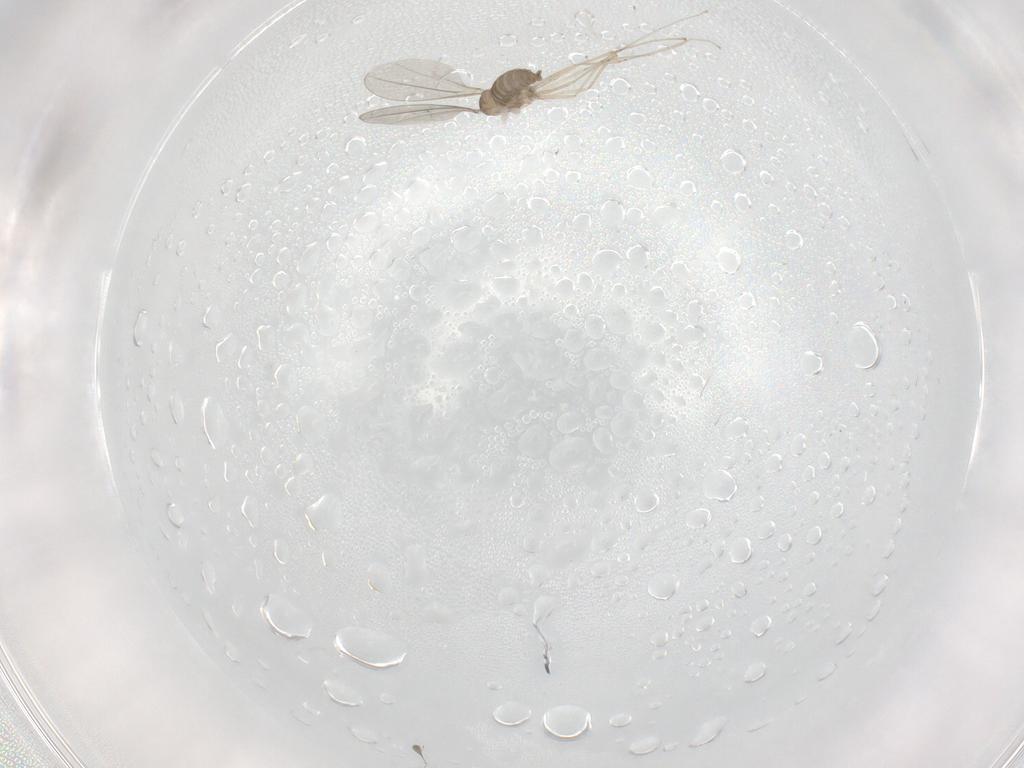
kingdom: Animalia
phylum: Arthropoda
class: Insecta
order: Diptera
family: Cecidomyiidae
